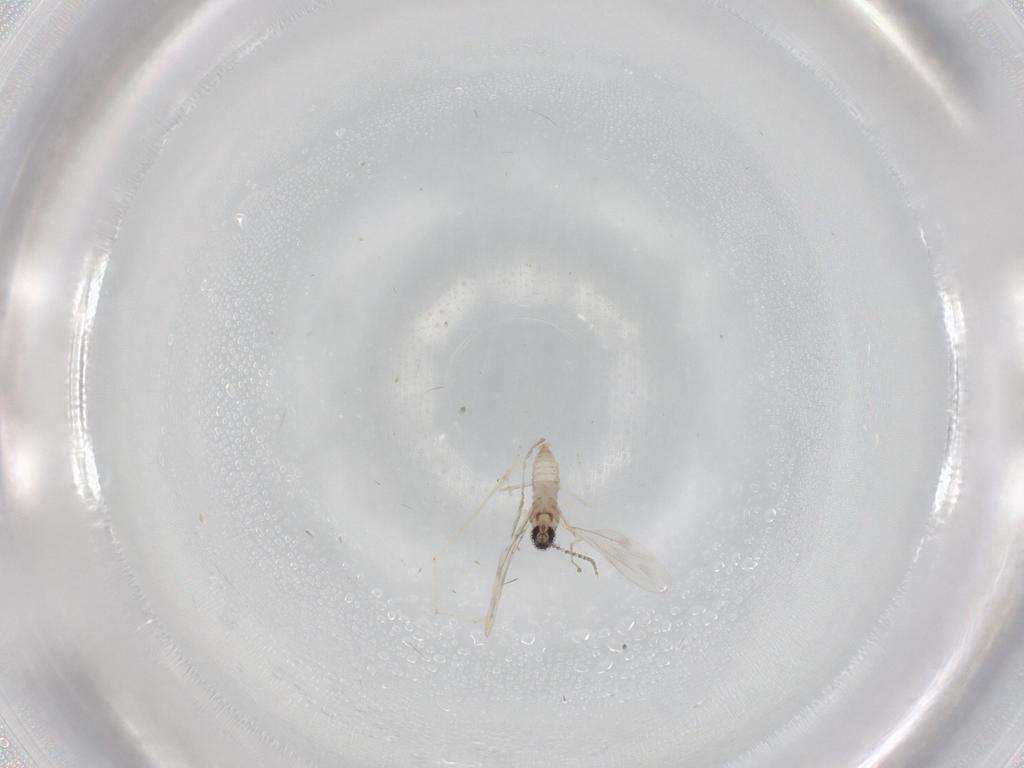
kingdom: Animalia
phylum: Arthropoda
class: Insecta
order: Diptera
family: Cecidomyiidae
